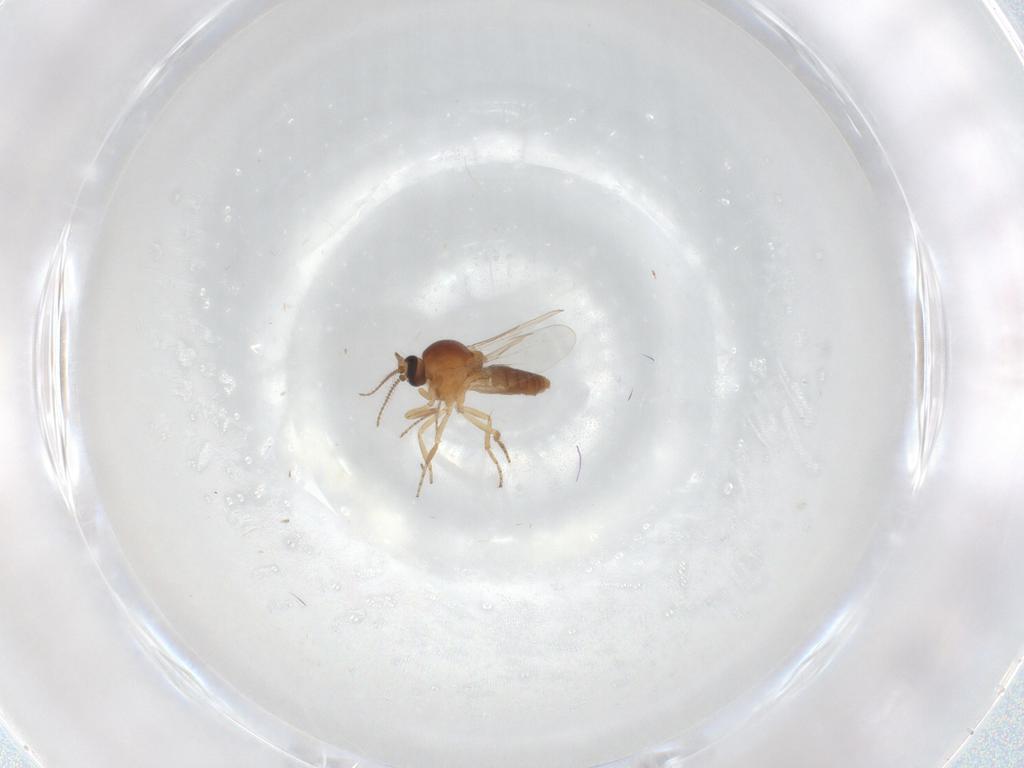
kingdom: Animalia
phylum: Arthropoda
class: Insecta
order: Diptera
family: Ceratopogonidae
